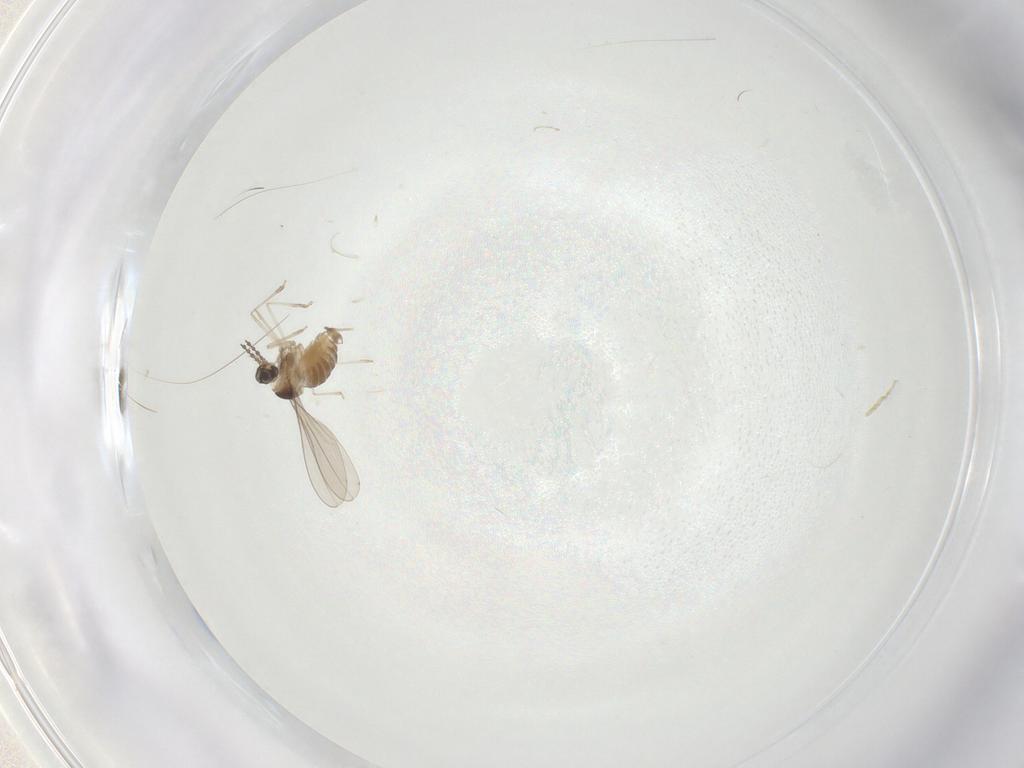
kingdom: Animalia
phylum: Arthropoda
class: Insecta
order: Diptera
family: Cecidomyiidae
